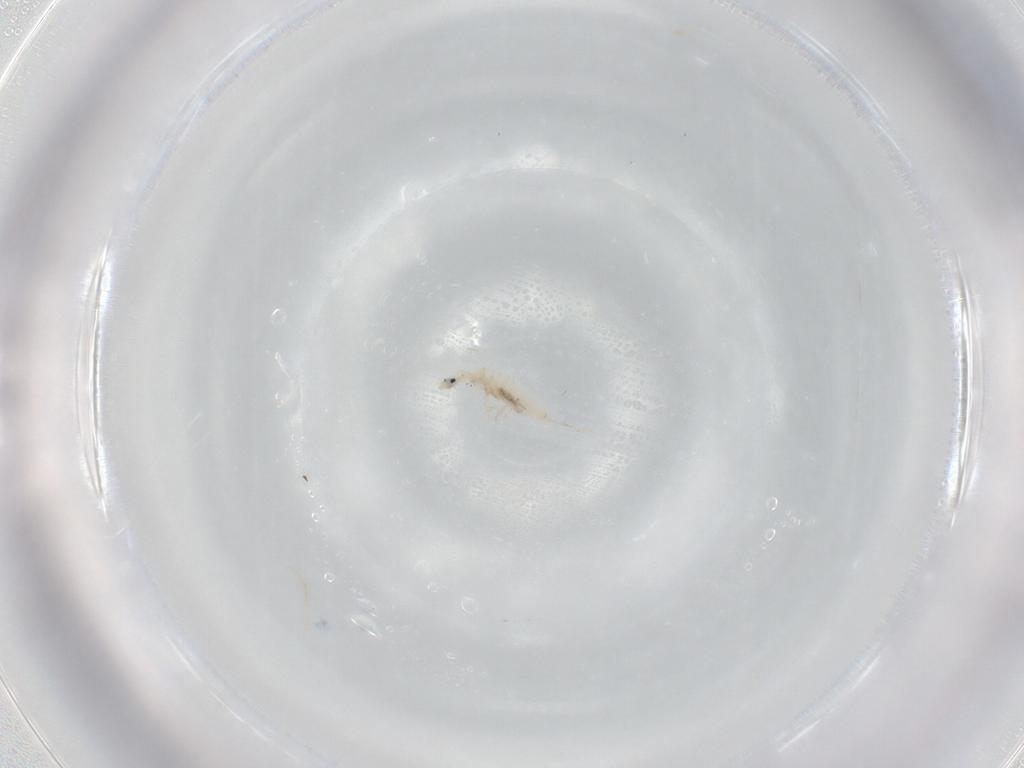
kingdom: Animalia
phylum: Arthropoda
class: Collembola
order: Entomobryomorpha
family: Entomobryidae
